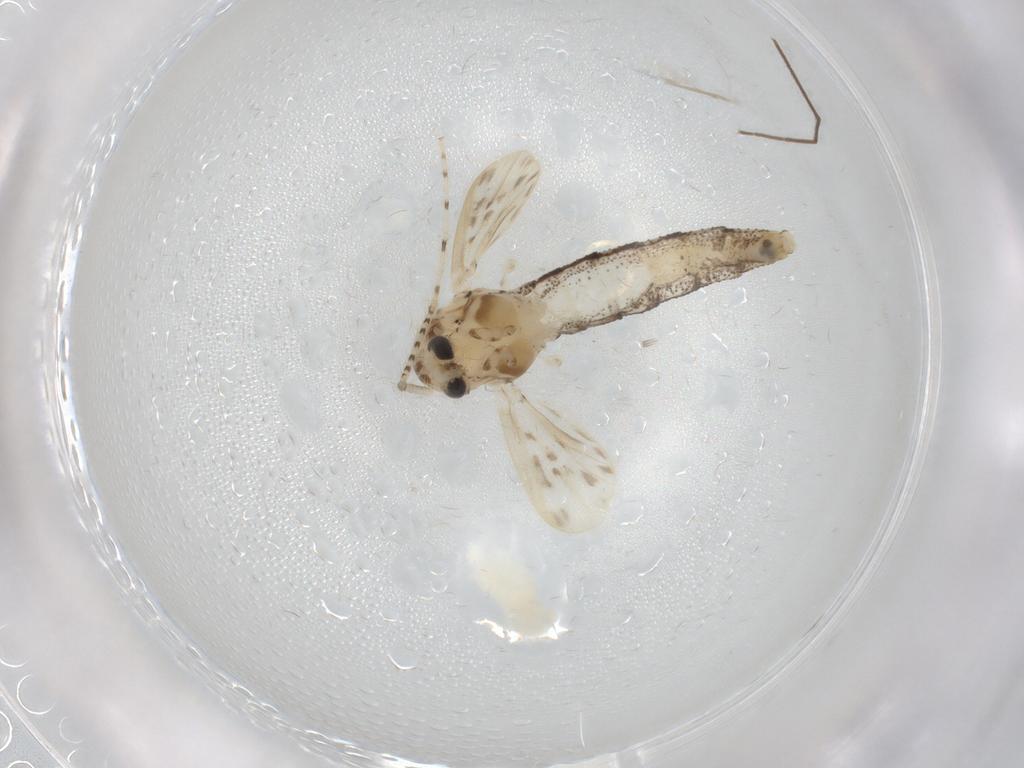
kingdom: Animalia
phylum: Arthropoda
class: Insecta
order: Diptera
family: Chaoboridae
